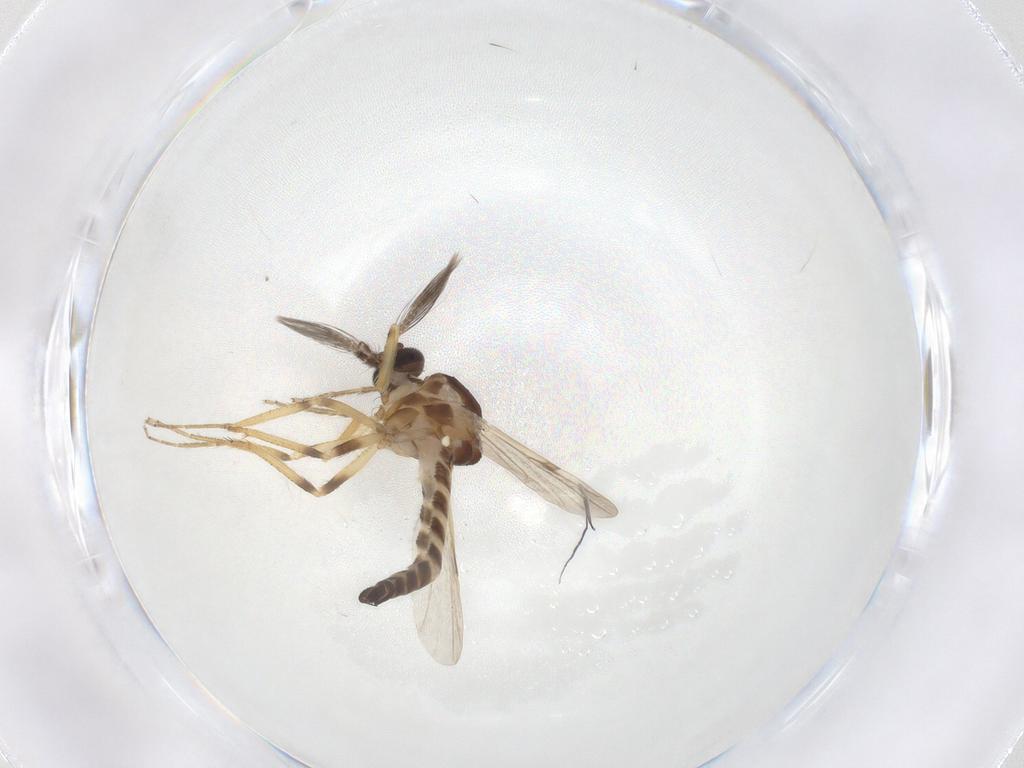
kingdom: Animalia
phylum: Arthropoda
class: Insecta
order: Diptera
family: Ceratopogonidae
